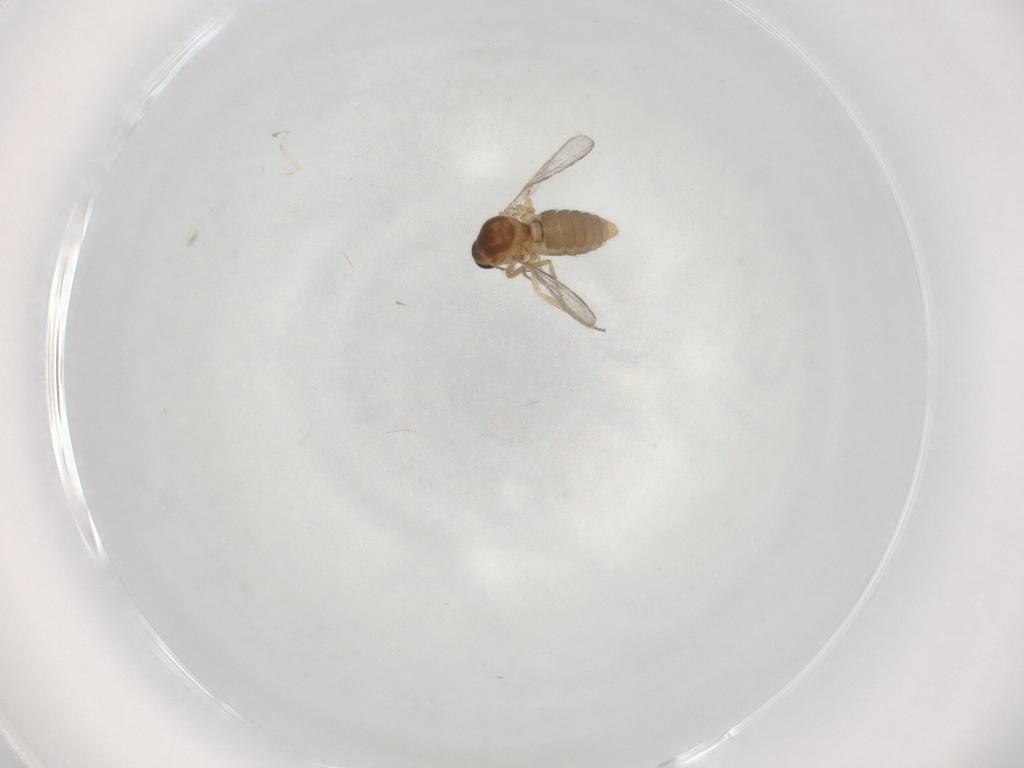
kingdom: Animalia
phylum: Arthropoda
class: Insecta
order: Diptera
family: Ceratopogonidae
